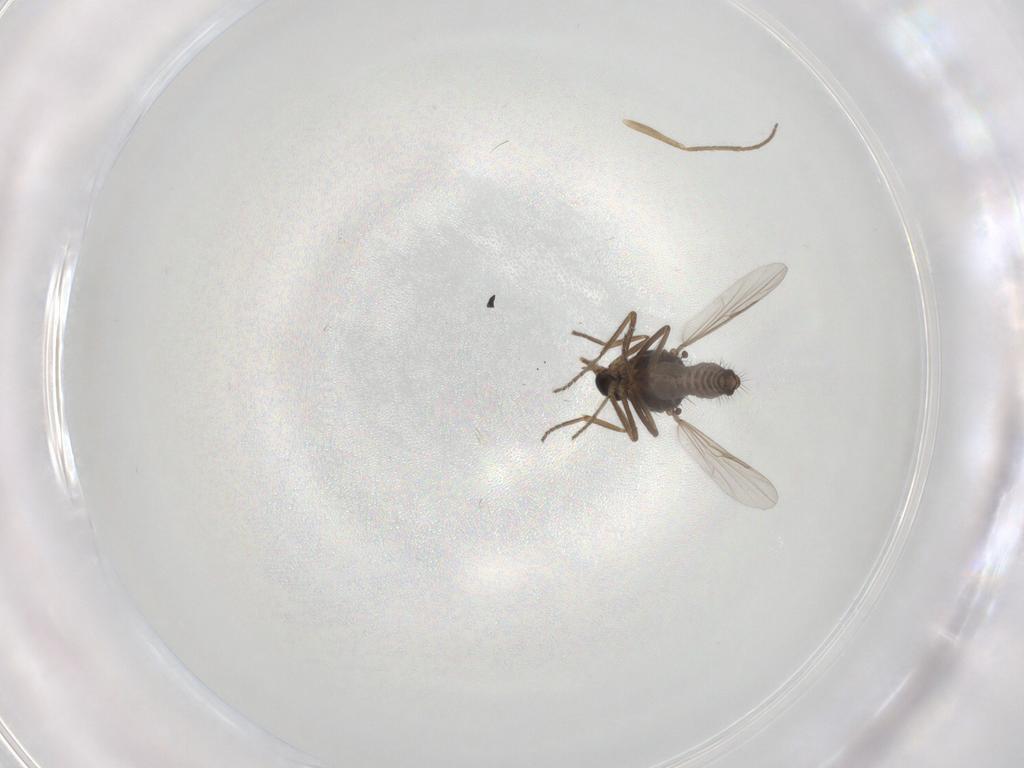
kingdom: Animalia
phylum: Arthropoda
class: Insecta
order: Diptera
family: Ceratopogonidae
